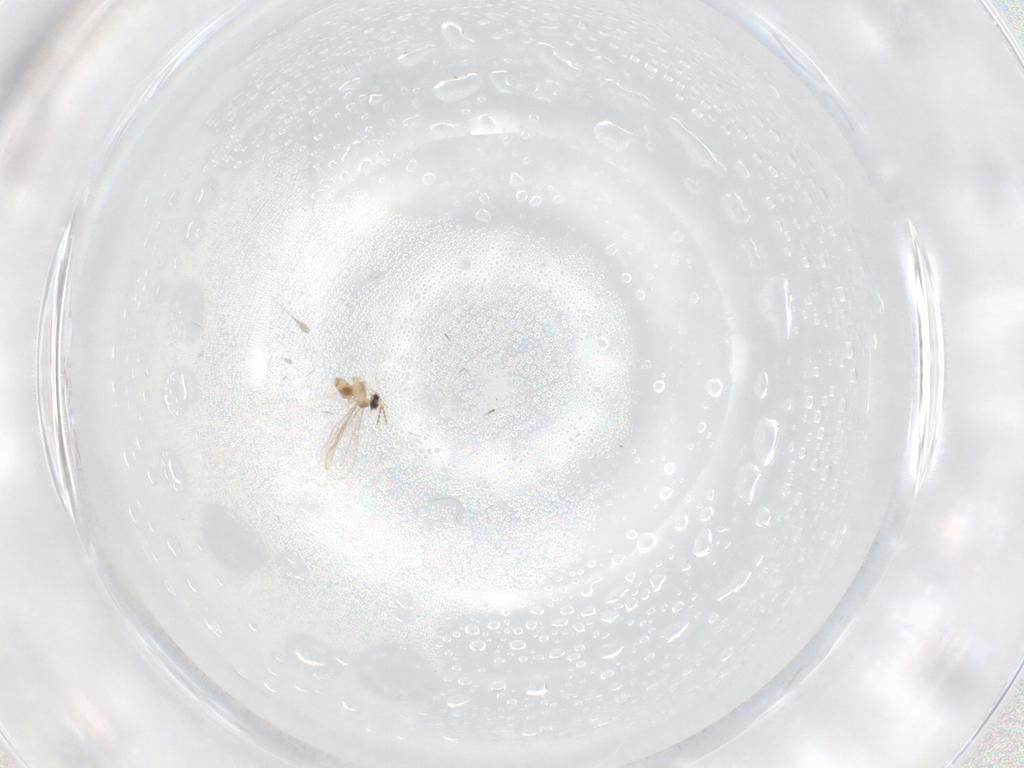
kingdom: Animalia
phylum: Arthropoda
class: Insecta
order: Diptera
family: Cecidomyiidae
